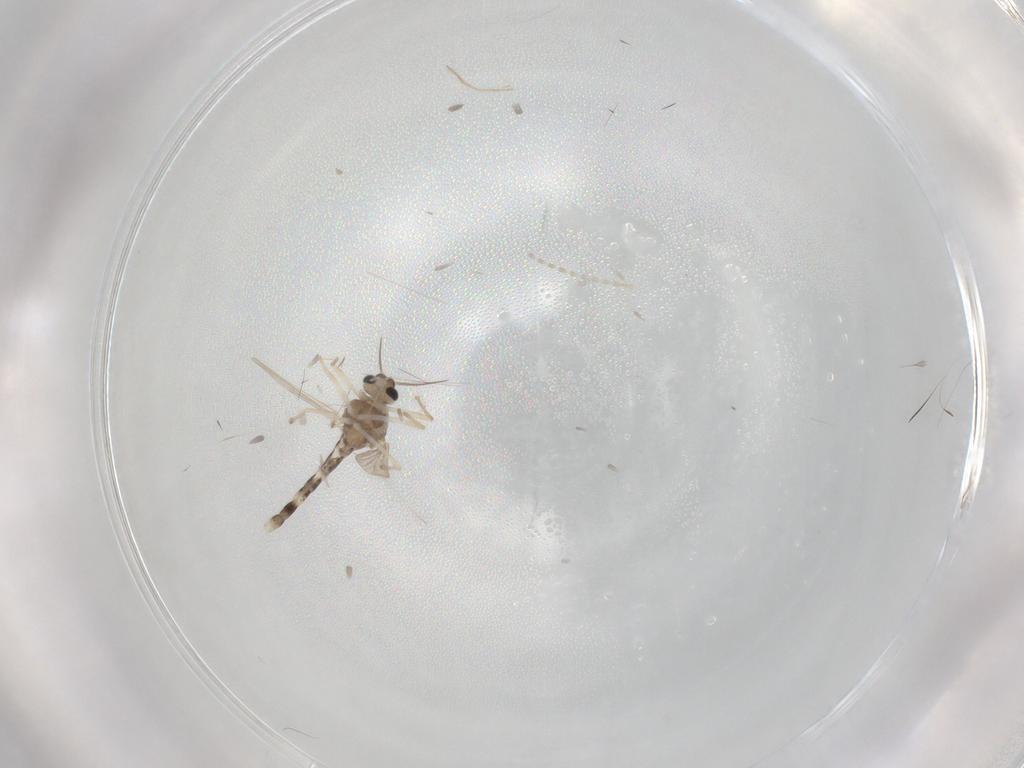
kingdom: Animalia
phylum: Arthropoda
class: Insecta
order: Diptera
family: Cecidomyiidae
